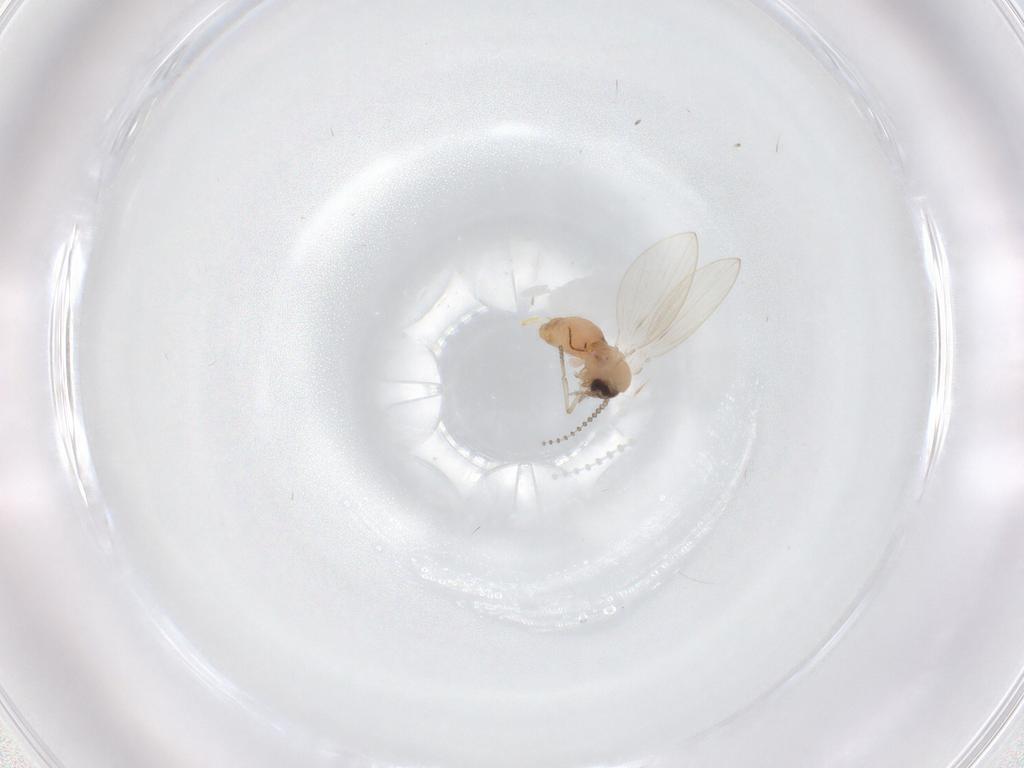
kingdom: Animalia
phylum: Arthropoda
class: Insecta
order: Diptera
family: Psychodidae
